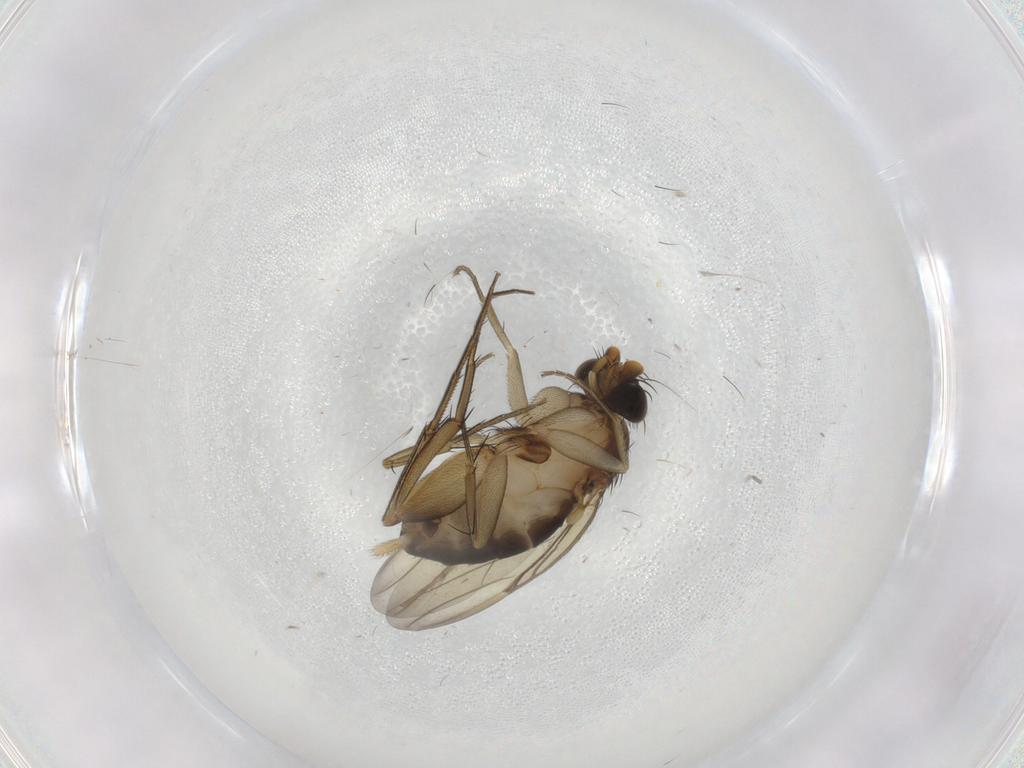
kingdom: Animalia
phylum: Arthropoda
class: Insecta
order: Diptera
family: Phoridae
